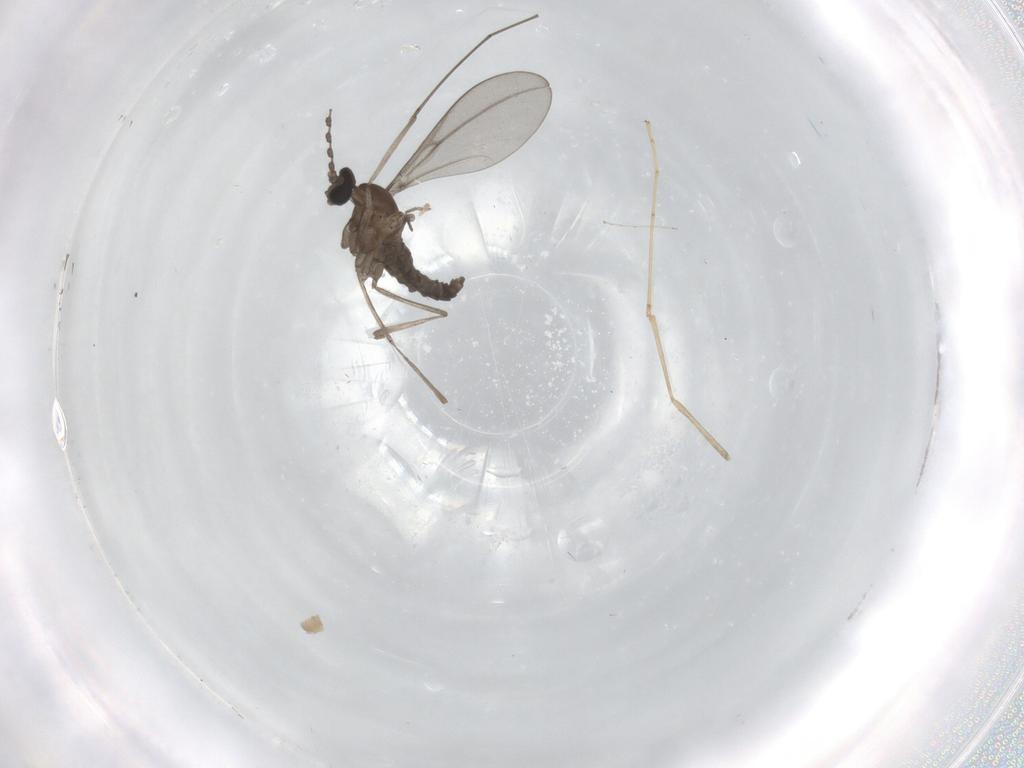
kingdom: Animalia
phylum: Arthropoda
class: Insecta
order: Diptera
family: Cecidomyiidae
